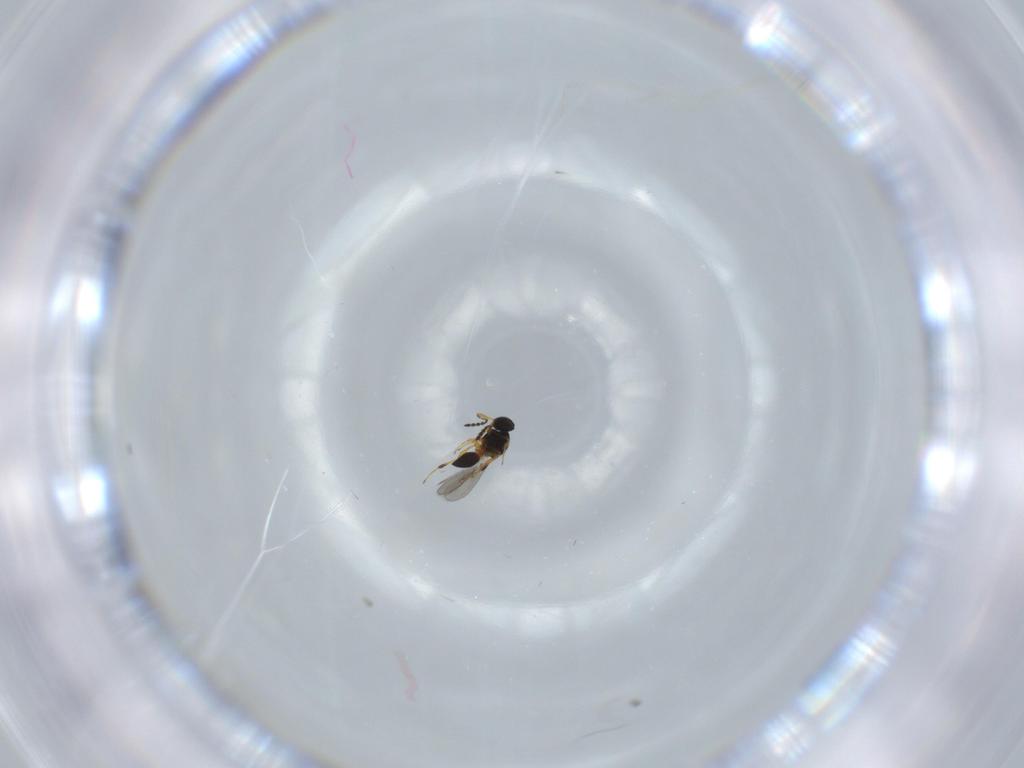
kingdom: Animalia
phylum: Arthropoda
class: Insecta
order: Hymenoptera
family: Platygastridae
